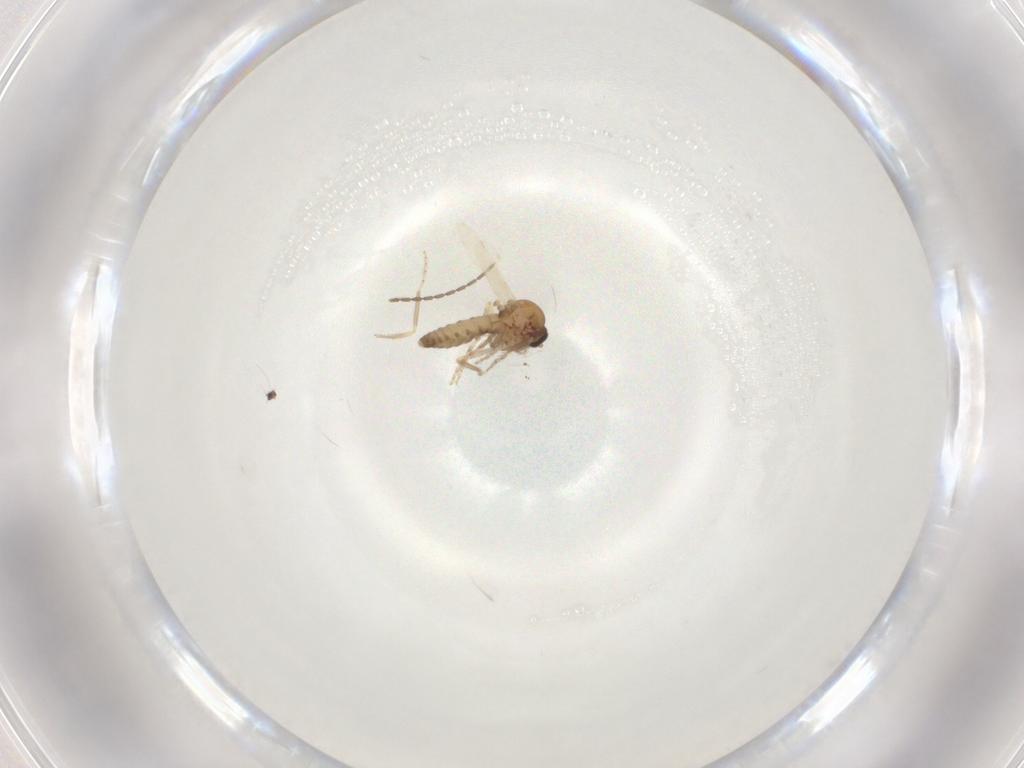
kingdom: Animalia
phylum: Arthropoda
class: Insecta
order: Diptera
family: Ceratopogonidae
